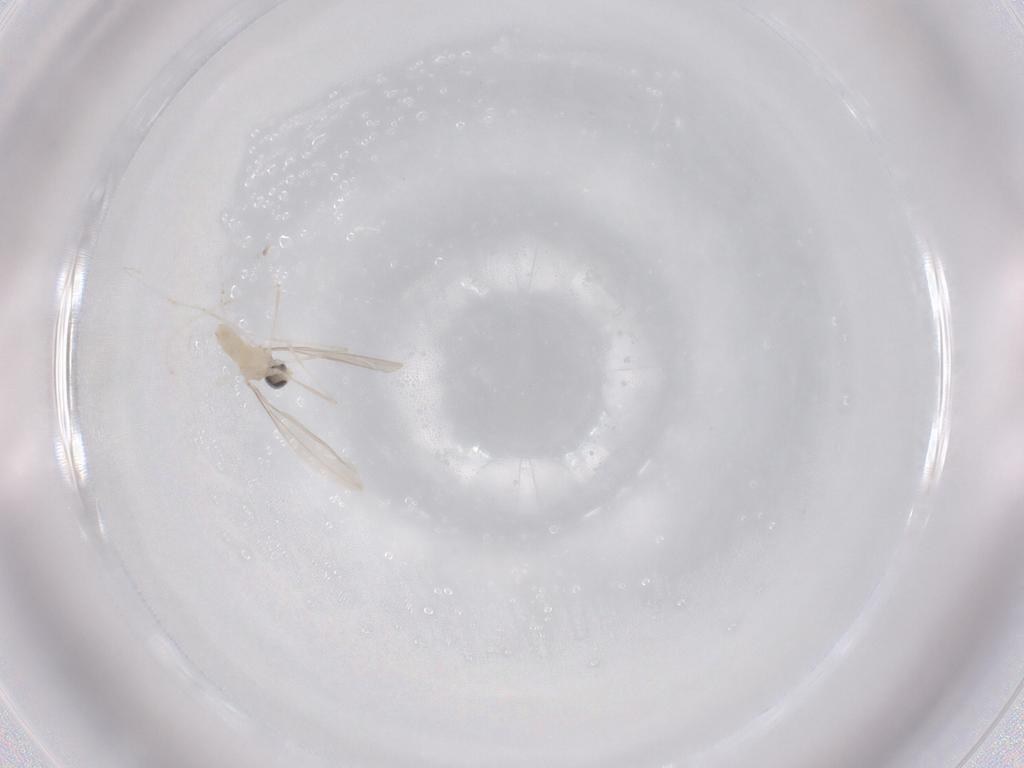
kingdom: Animalia
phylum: Arthropoda
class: Insecta
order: Diptera
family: Cecidomyiidae
